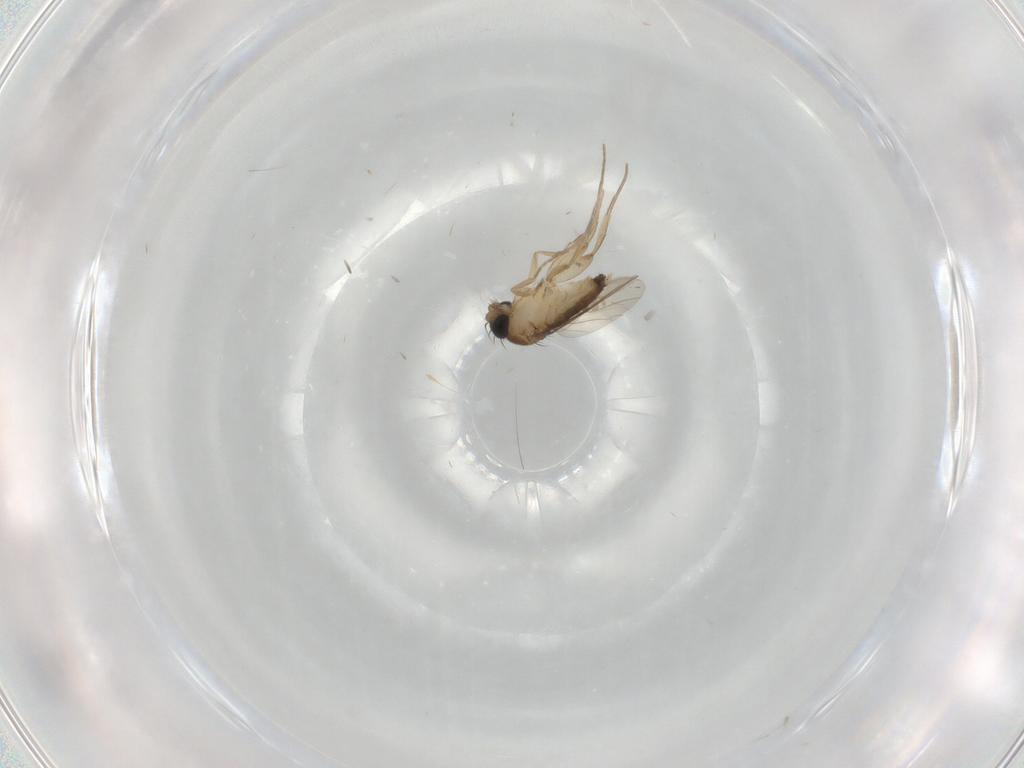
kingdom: Animalia
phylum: Arthropoda
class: Insecta
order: Diptera
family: Phoridae
